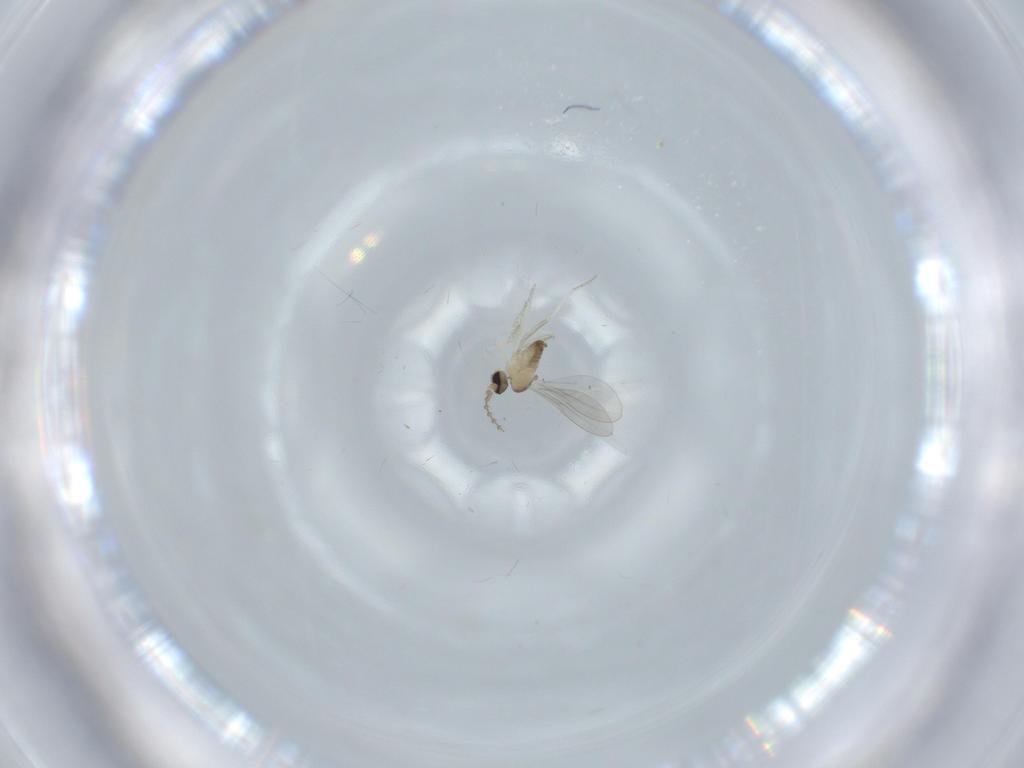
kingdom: Animalia
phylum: Arthropoda
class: Insecta
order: Diptera
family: Cecidomyiidae
